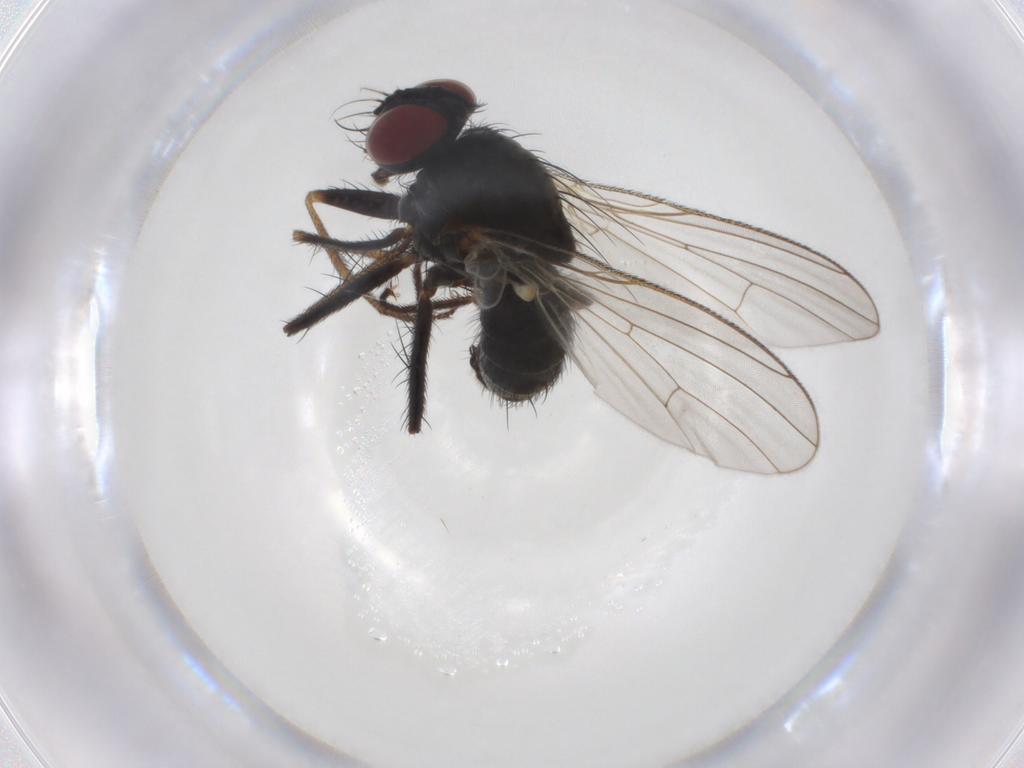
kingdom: Animalia
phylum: Arthropoda
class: Insecta
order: Diptera
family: Muscidae
